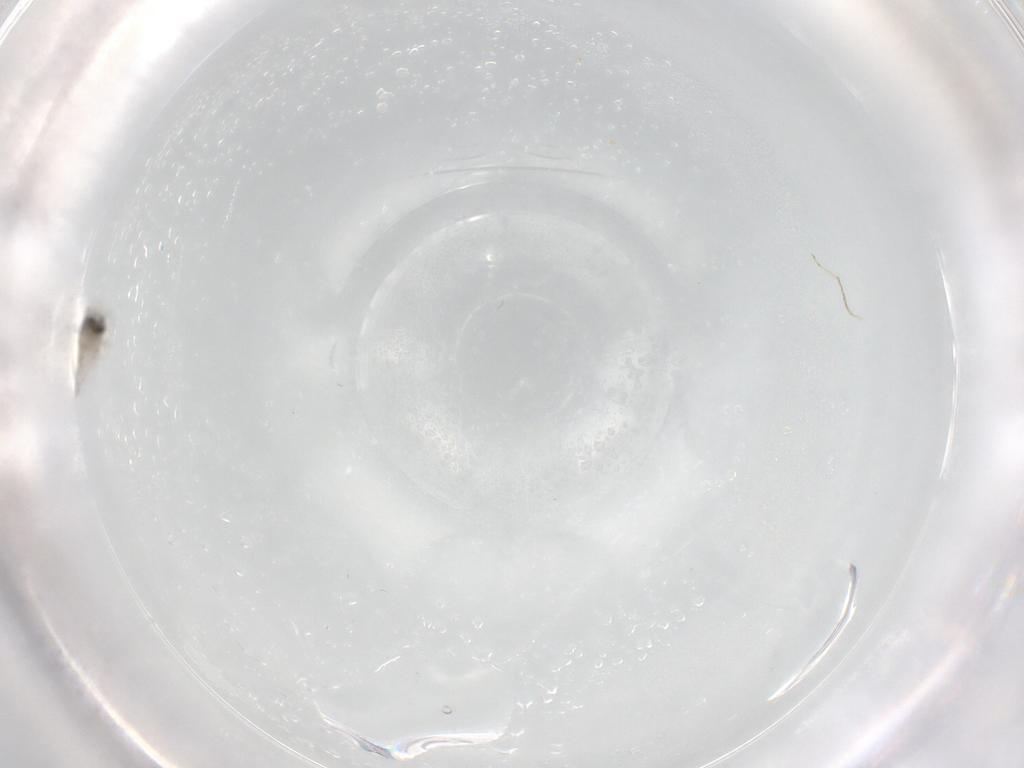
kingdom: Animalia
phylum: Arthropoda
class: Insecta
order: Diptera
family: Cecidomyiidae
